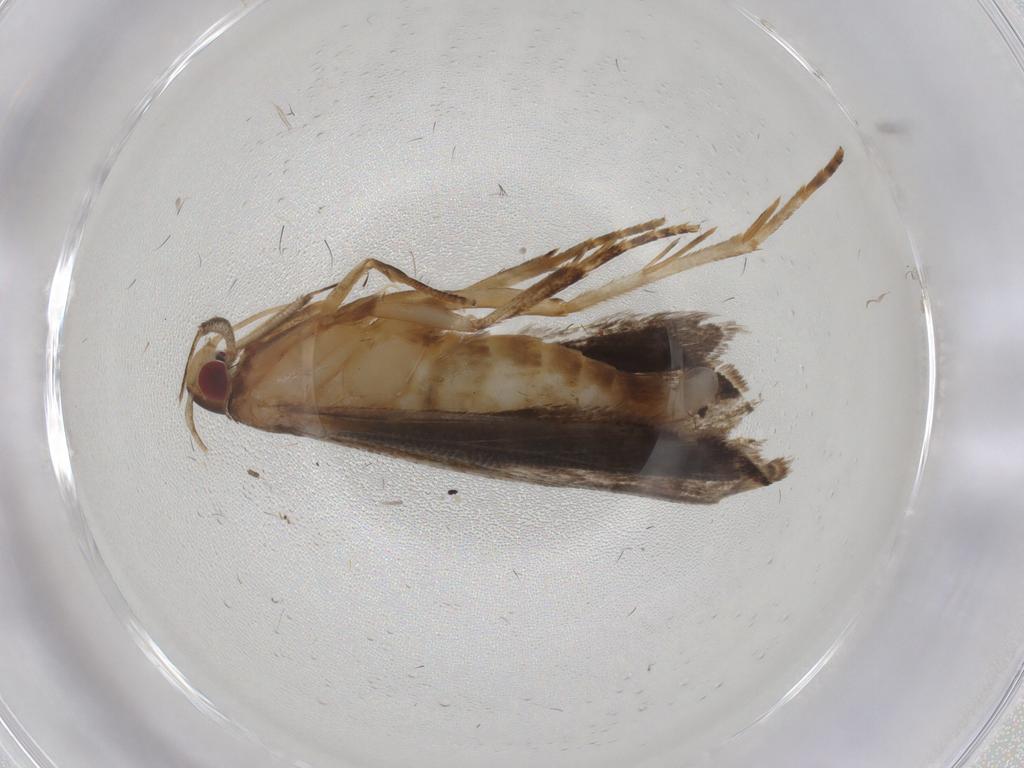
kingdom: Animalia
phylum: Arthropoda
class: Insecta
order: Lepidoptera
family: Gelechiidae
